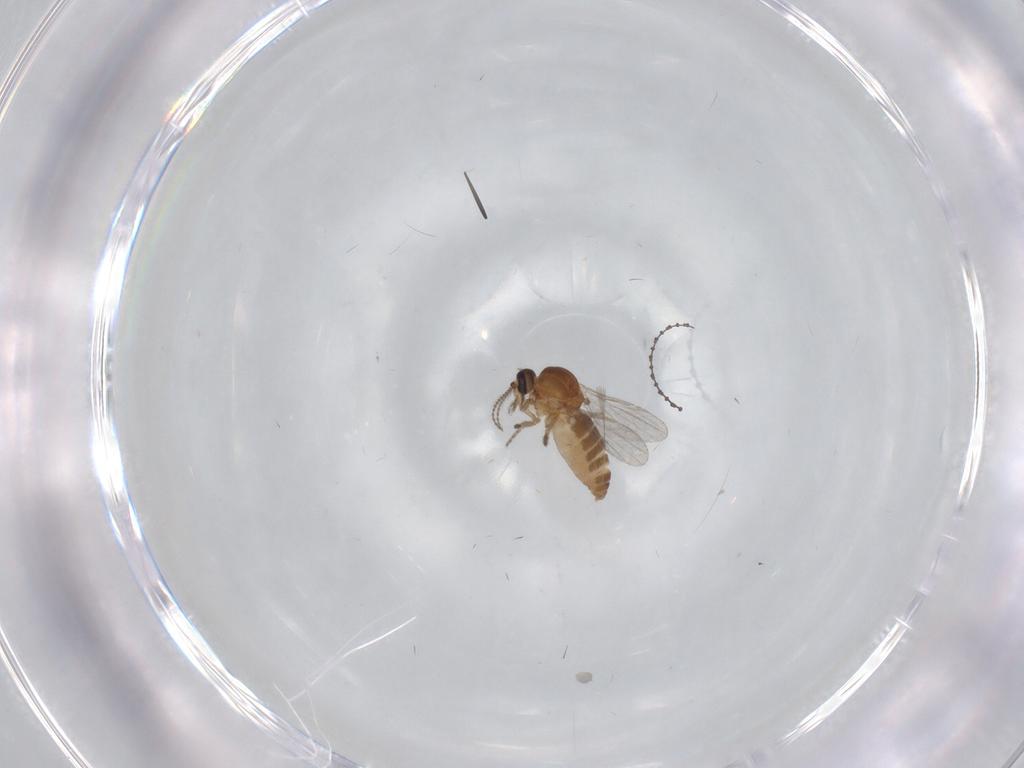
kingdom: Animalia
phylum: Arthropoda
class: Insecta
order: Diptera
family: Ceratopogonidae
